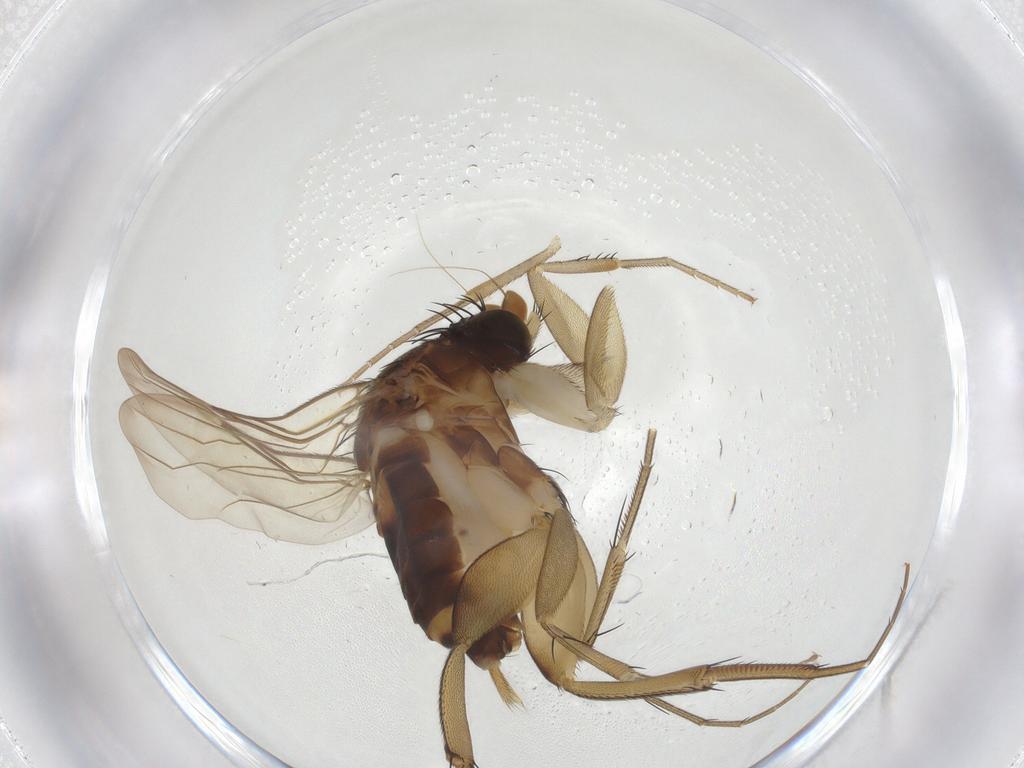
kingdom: Animalia
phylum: Arthropoda
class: Insecta
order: Diptera
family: Phoridae
